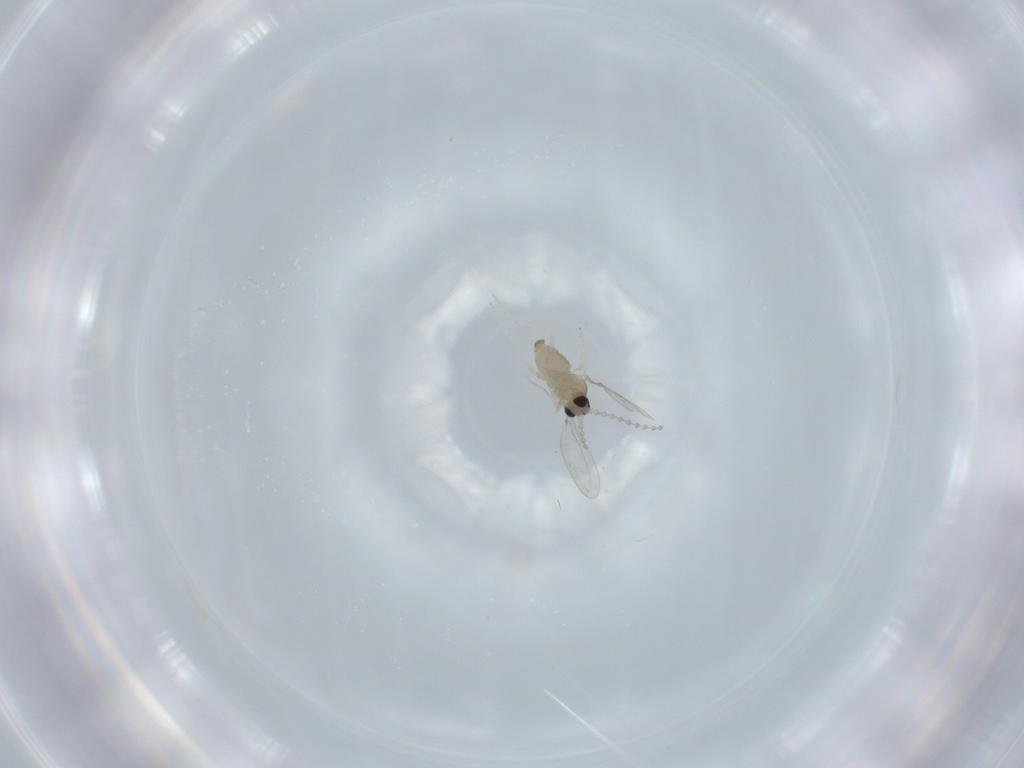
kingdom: Animalia
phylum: Arthropoda
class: Insecta
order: Diptera
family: Cecidomyiidae
